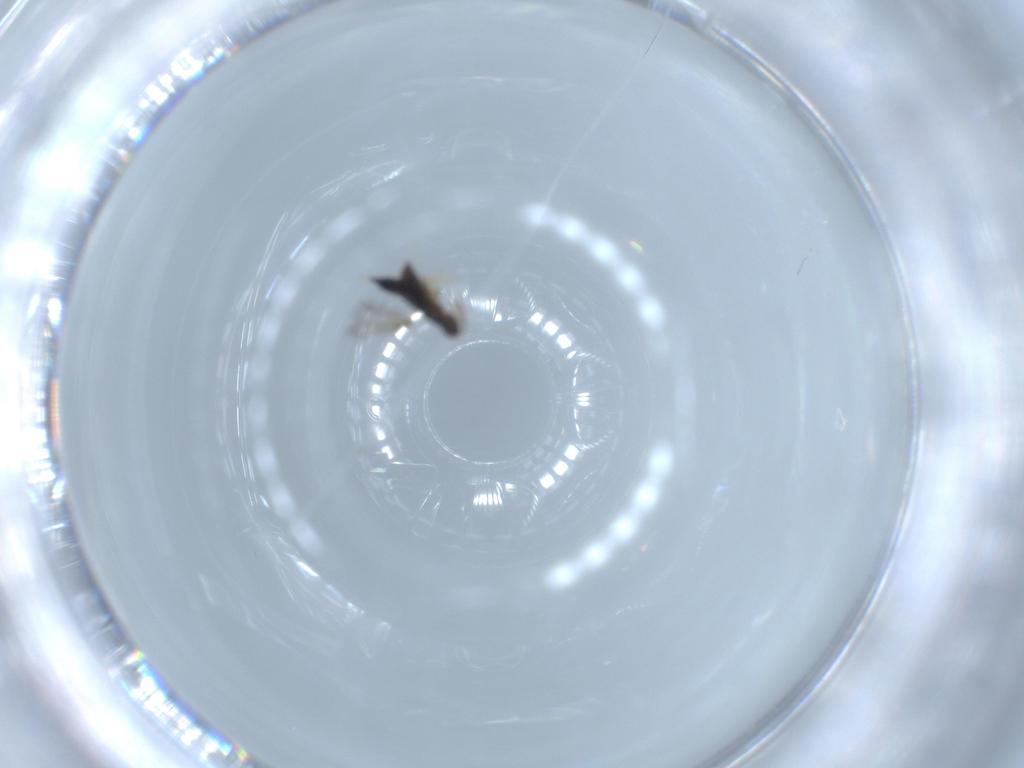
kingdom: Animalia
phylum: Arthropoda
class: Insecta
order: Hymenoptera
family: Signiphoridae
